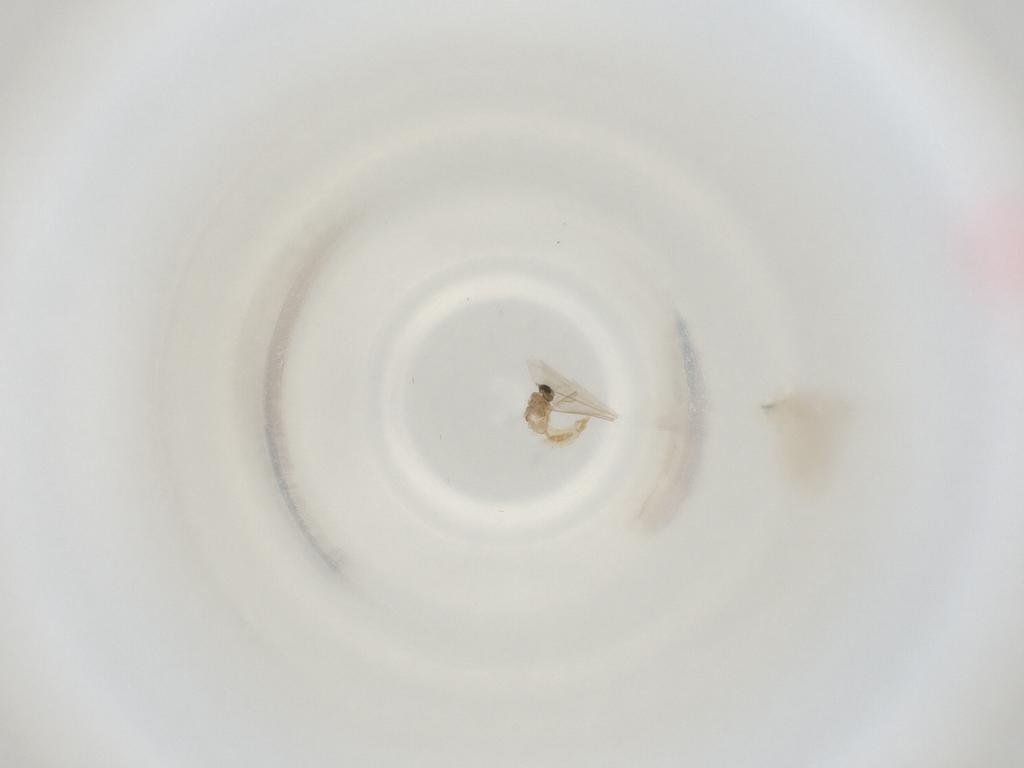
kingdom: Animalia
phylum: Arthropoda
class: Insecta
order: Diptera
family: Cecidomyiidae
